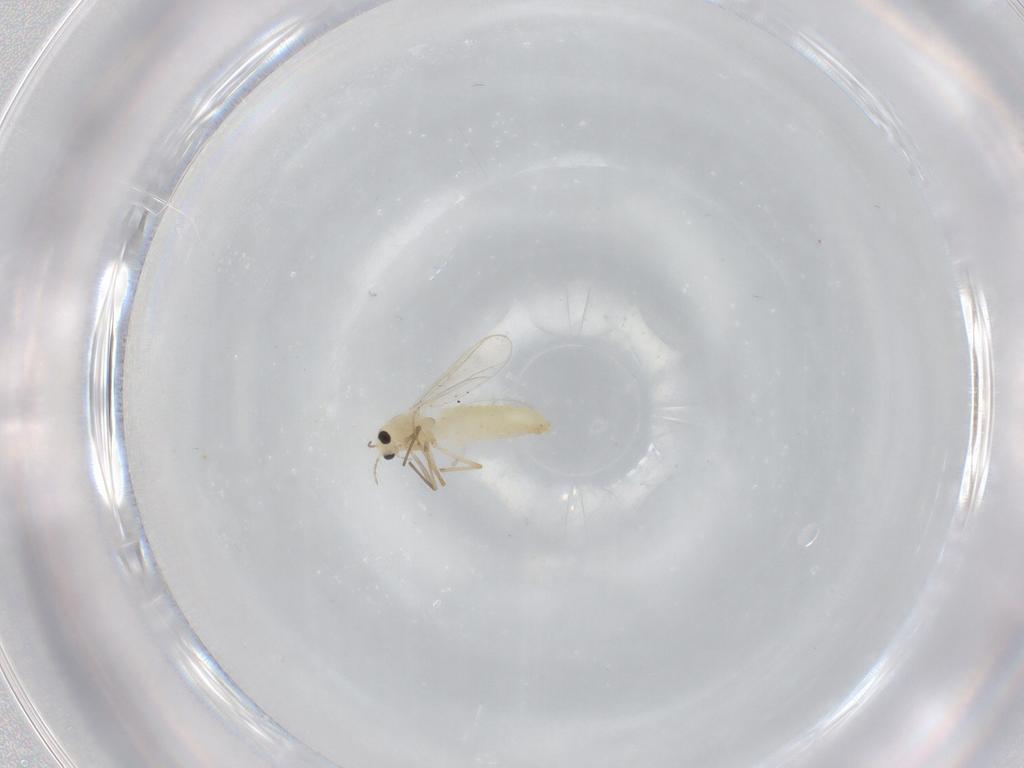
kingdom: Animalia
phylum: Arthropoda
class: Insecta
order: Diptera
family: Chironomidae
